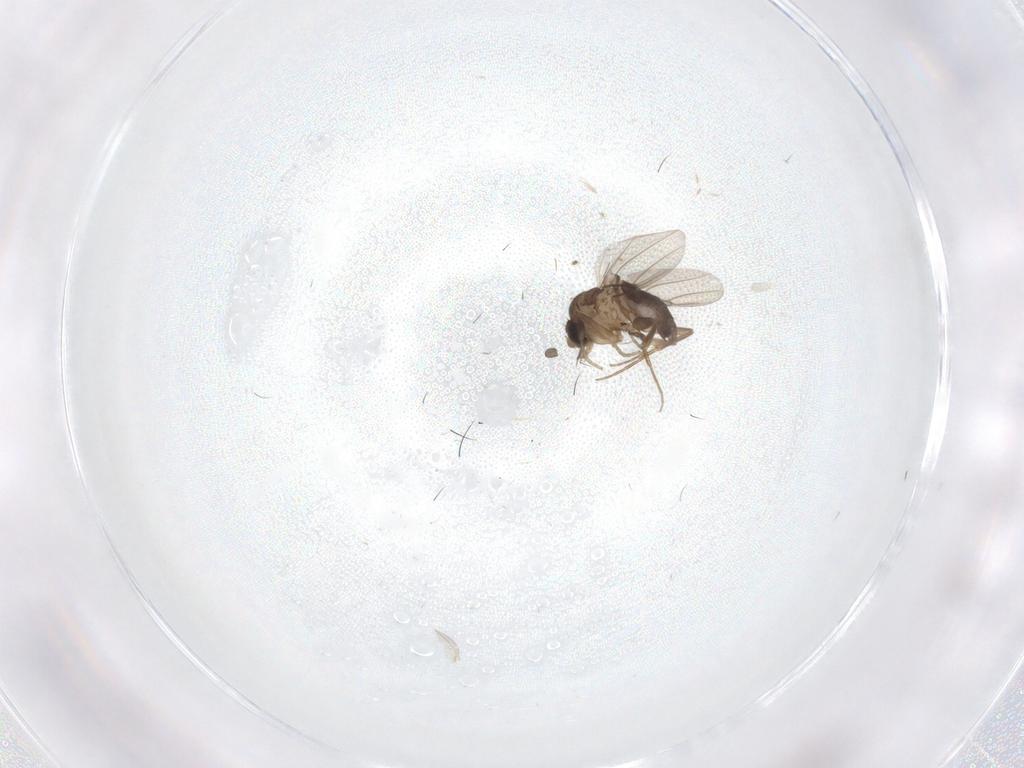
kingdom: Animalia
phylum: Arthropoda
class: Insecta
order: Diptera
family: Phoridae
